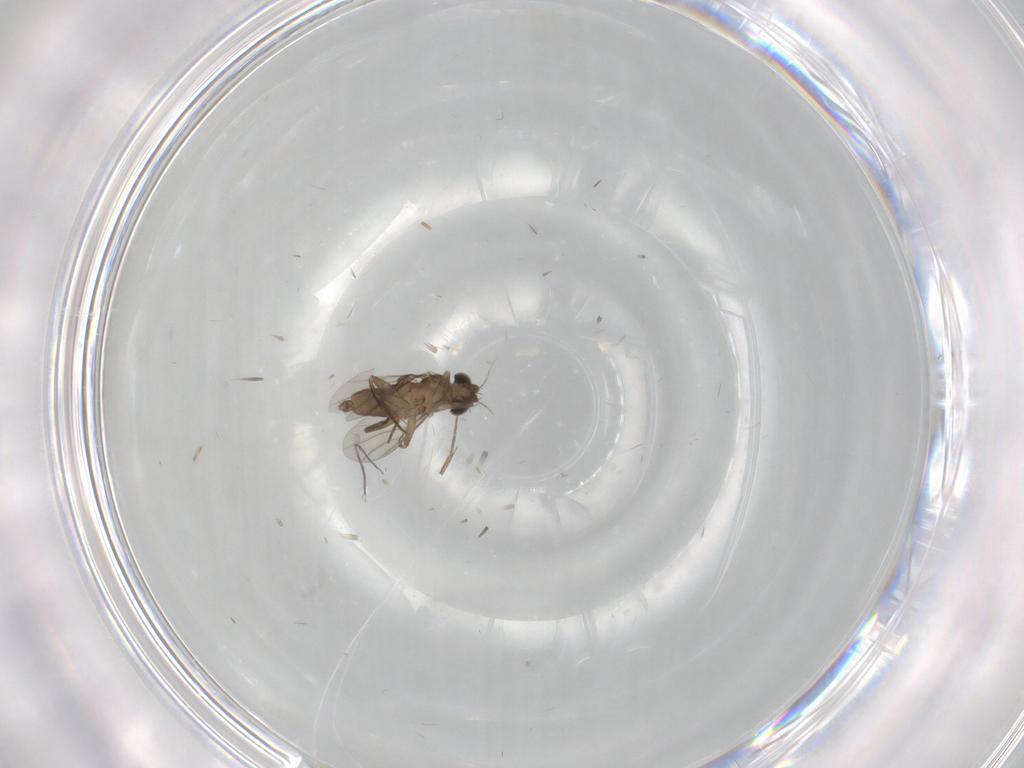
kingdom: Animalia
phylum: Arthropoda
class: Insecta
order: Diptera
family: Phoridae
